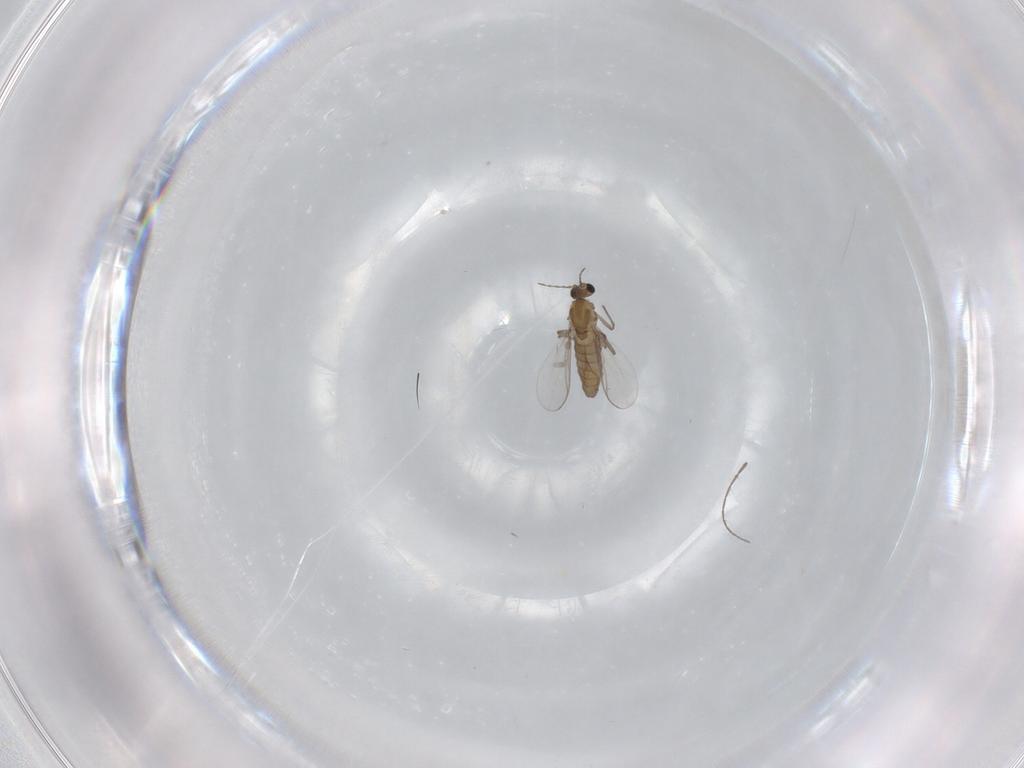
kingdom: Animalia
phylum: Arthropoda
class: Insecta
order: Diptera
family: Chironomidae
